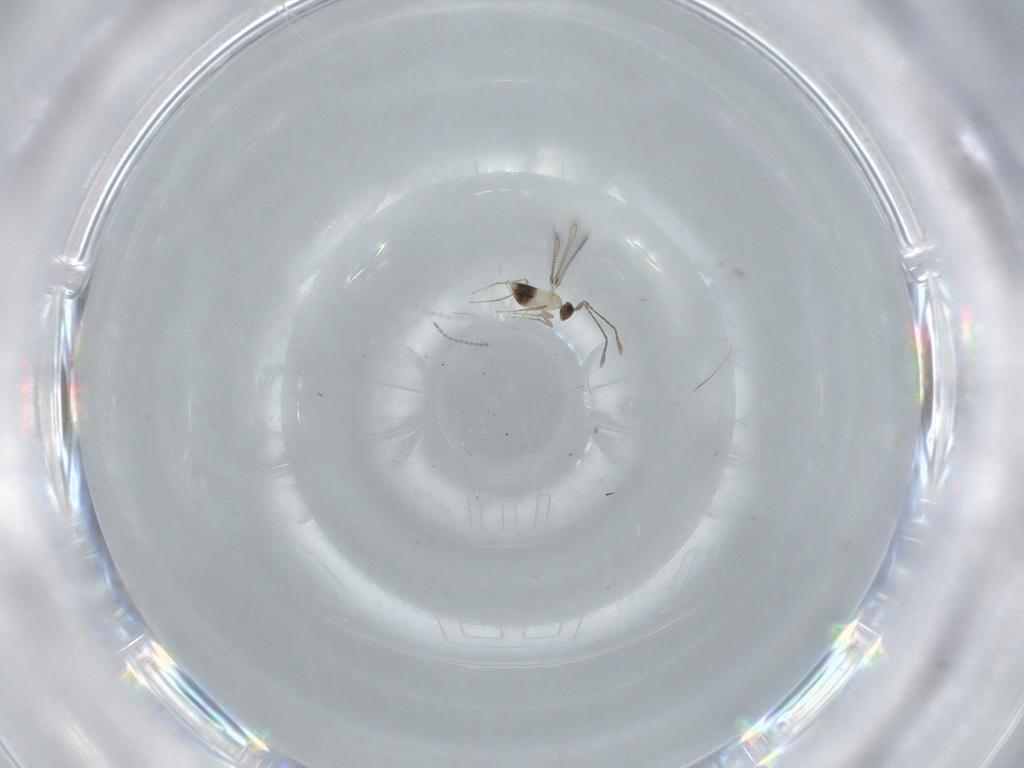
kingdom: Animalia
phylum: Arthropoda
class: Insecta
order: Hymenoptera
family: Mymaridae
